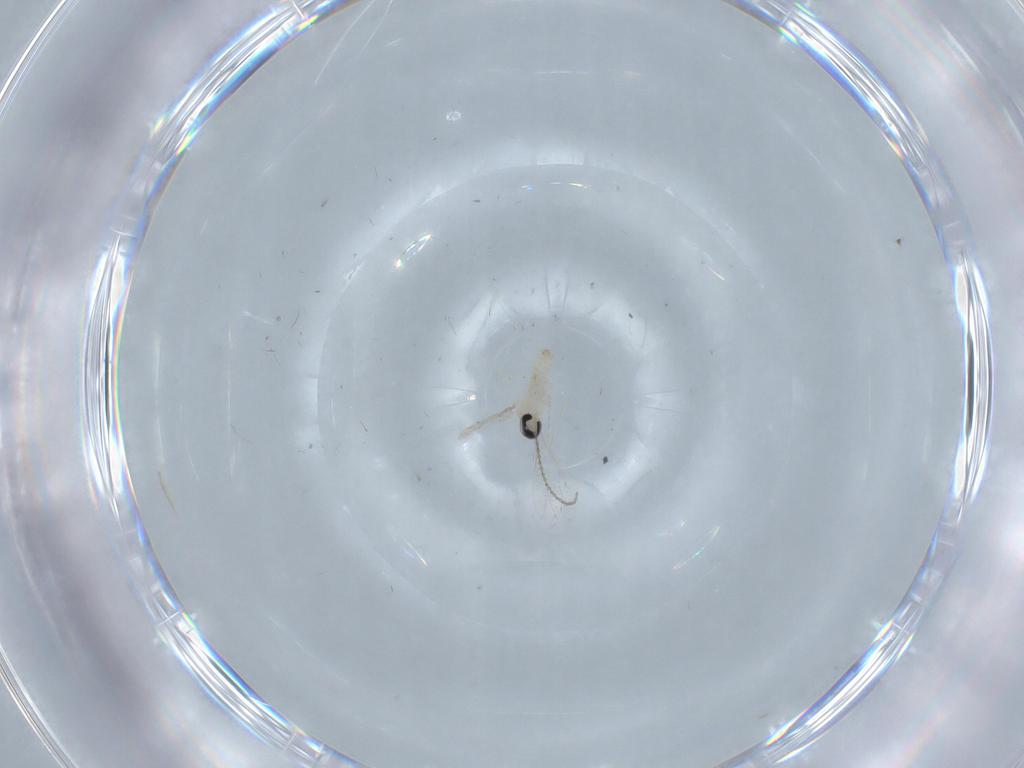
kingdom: Animalia
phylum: Arthropoda
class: Insecta
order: Diptera
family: Cecidomyiidae
